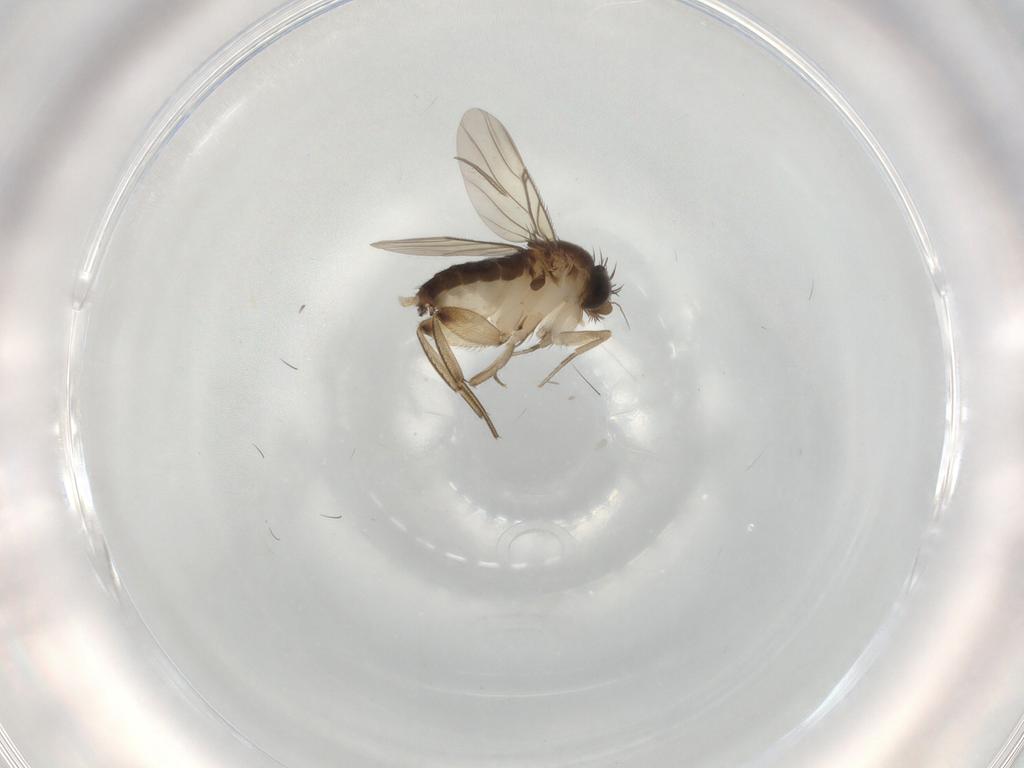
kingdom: Animalia
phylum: Arthropoda
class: Insecta
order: Diptera
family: Phoridae
